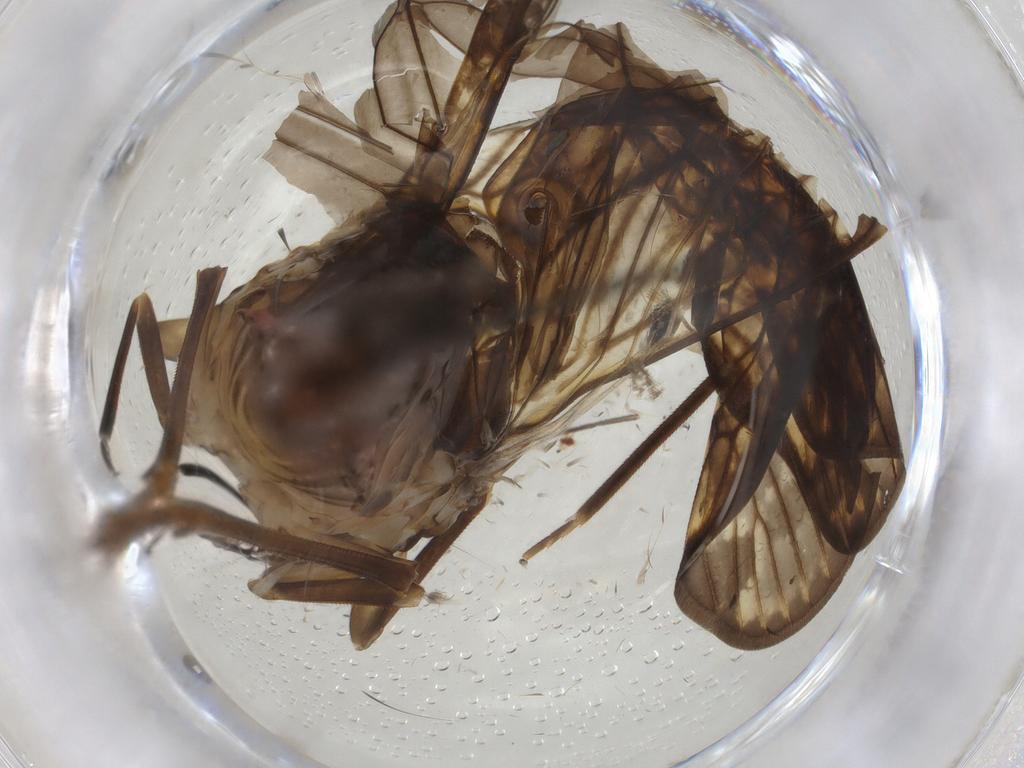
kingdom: Animalia
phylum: Arthropoda
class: Insecta
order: Hemiptera
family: Cixiidae
